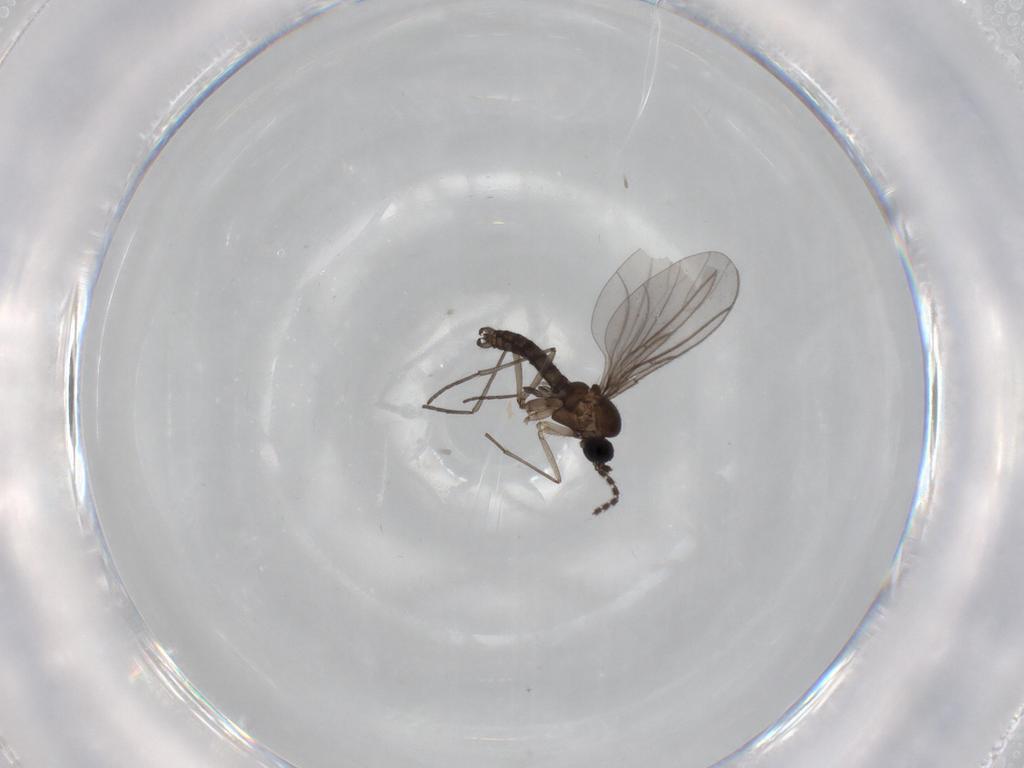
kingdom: Animalia
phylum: Arthropoda
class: Insecta
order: Diptera
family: Sciaridae
